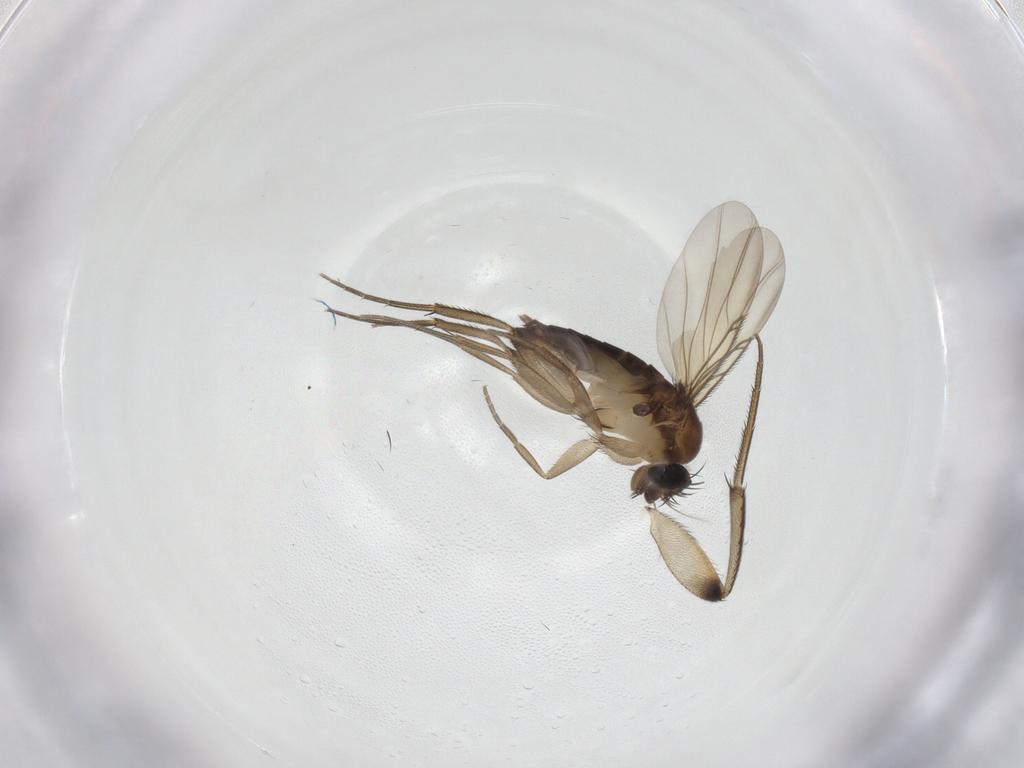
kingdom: Animalia
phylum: Arthropoda
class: Insecta
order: Diptera
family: Phoridae
